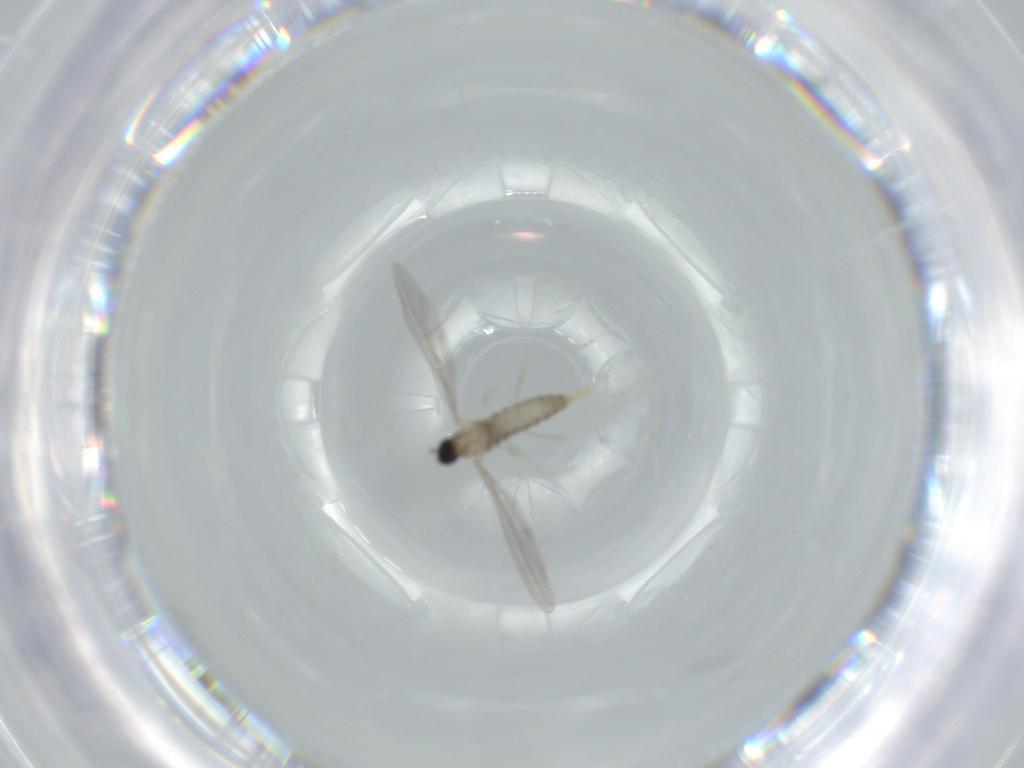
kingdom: Animalia
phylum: Arthropoda
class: Insecta
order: Diptera
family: Cecidomyiidae
